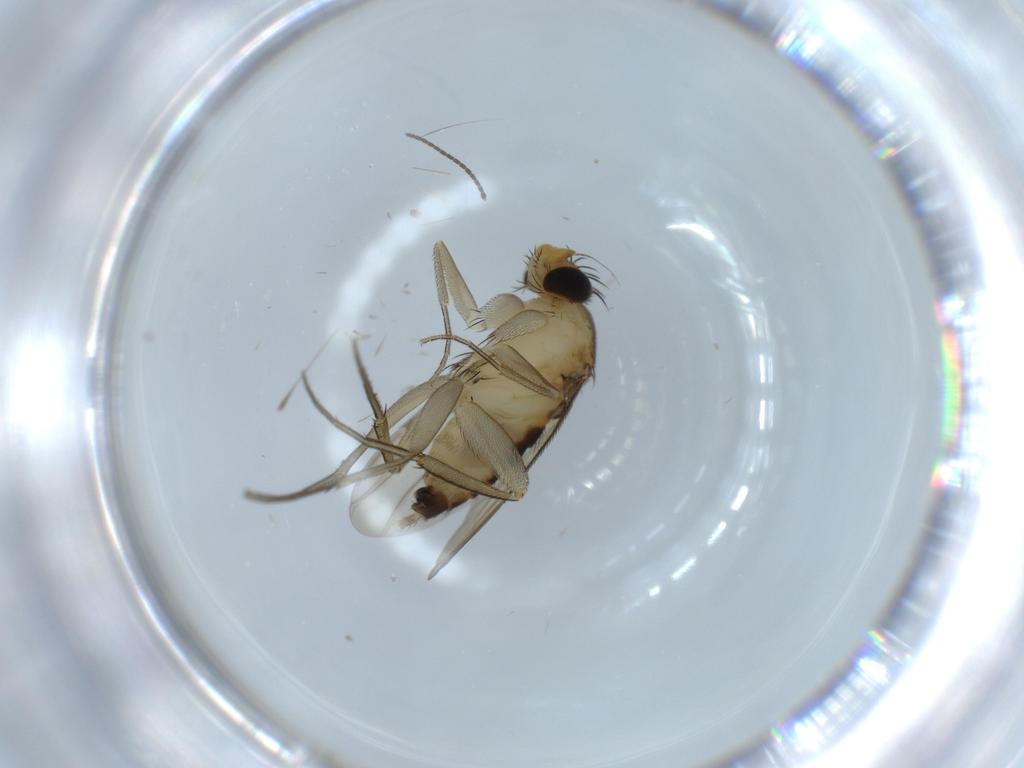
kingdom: Animalia
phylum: Arthropoda
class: Insecta
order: Diptera
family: Phoridae
